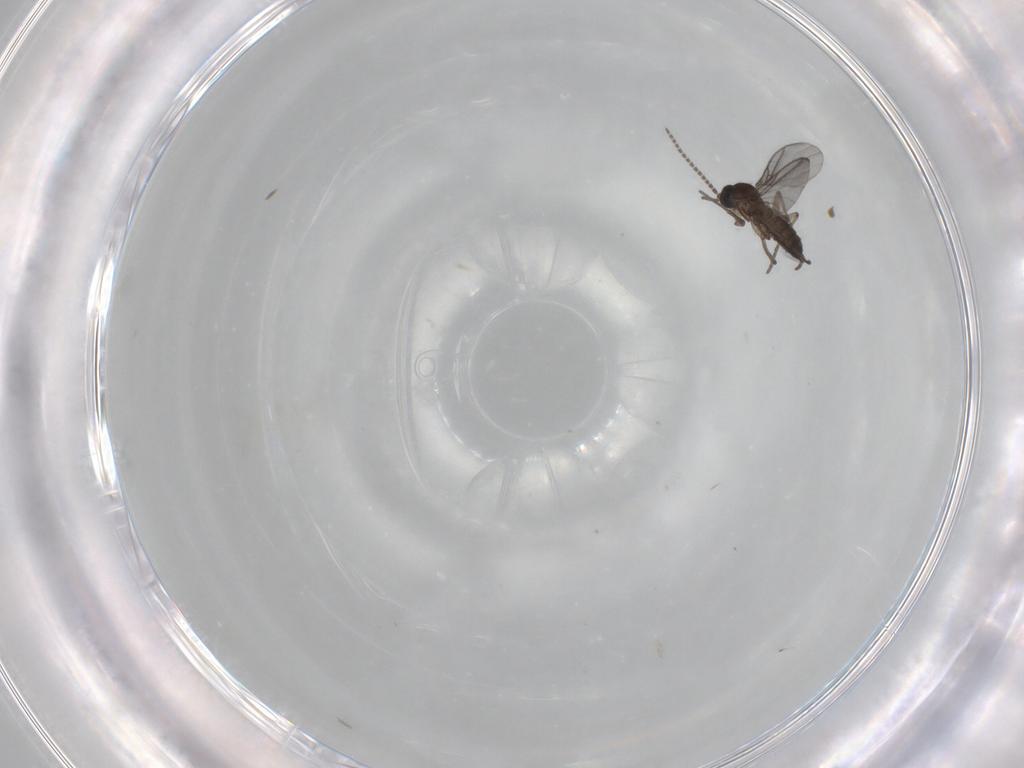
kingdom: Animalia
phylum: Arthropoda
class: Insecta
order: Diptera
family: Sciaridae
